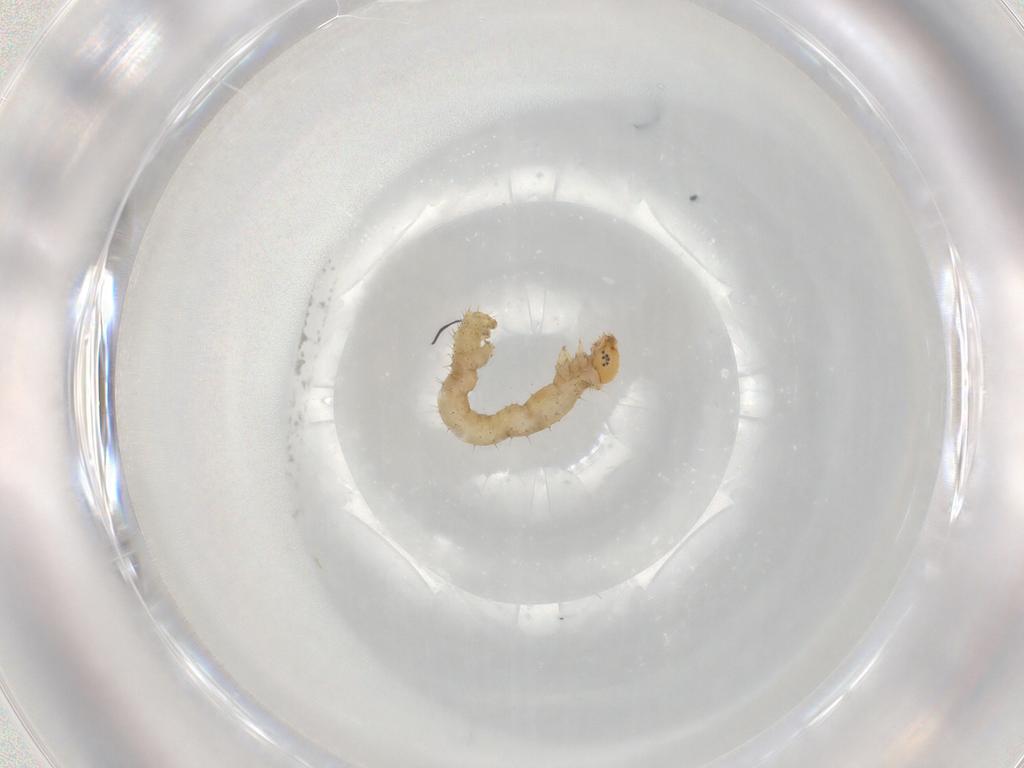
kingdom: Animalia
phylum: Arthropoda
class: Insecta
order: Lepidoptera
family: Geometridae
